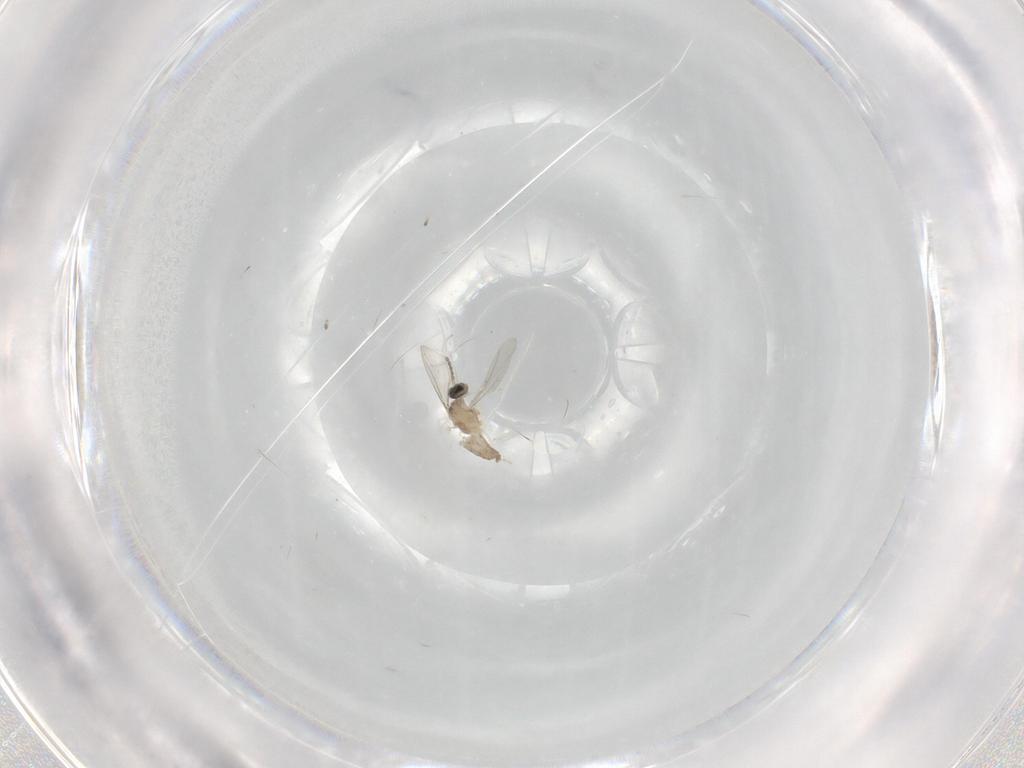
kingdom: Animalia
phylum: Arthropoda
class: Insecta
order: Diptera
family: Cecidomyiidae
